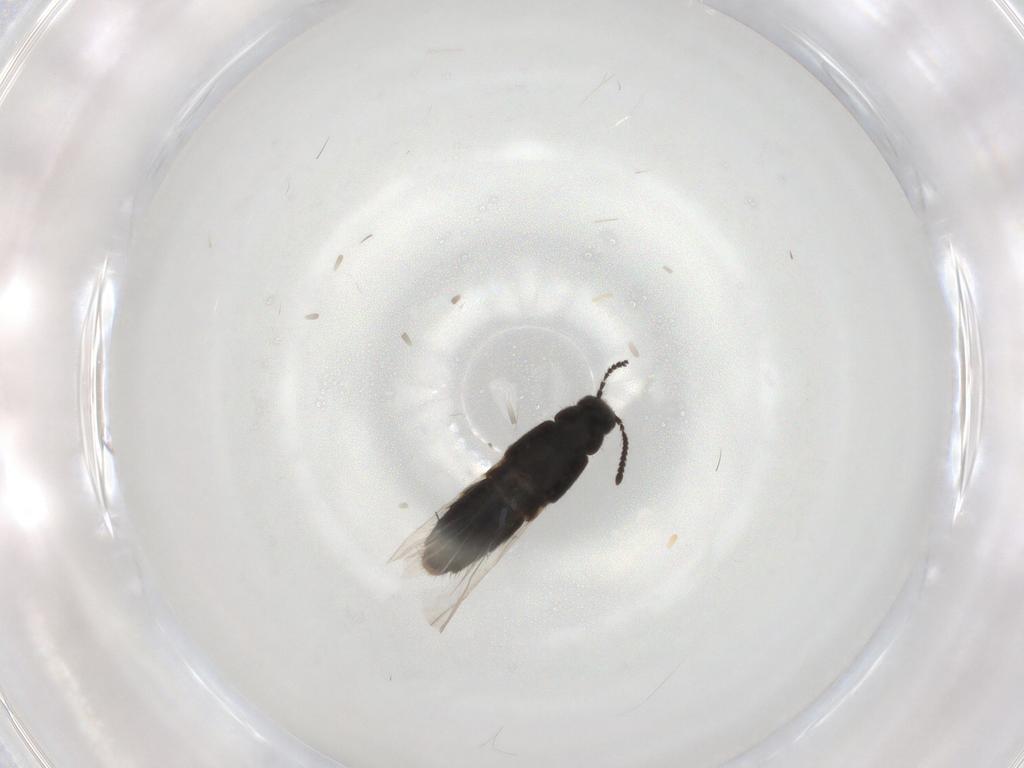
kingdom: Animalia
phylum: Arthropoda
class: Insecta
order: Coleoptera
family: Staphylinidae
